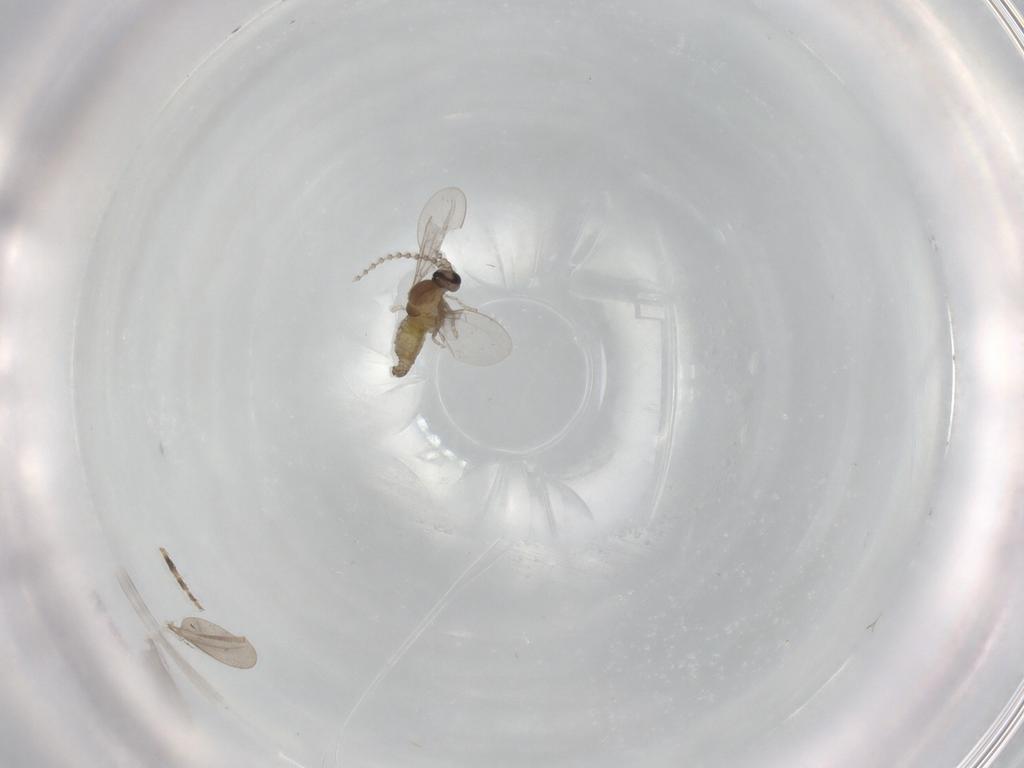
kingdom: Animalia
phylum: Arthropoda
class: Insecta
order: Diptera
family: Cecidomyiidae
